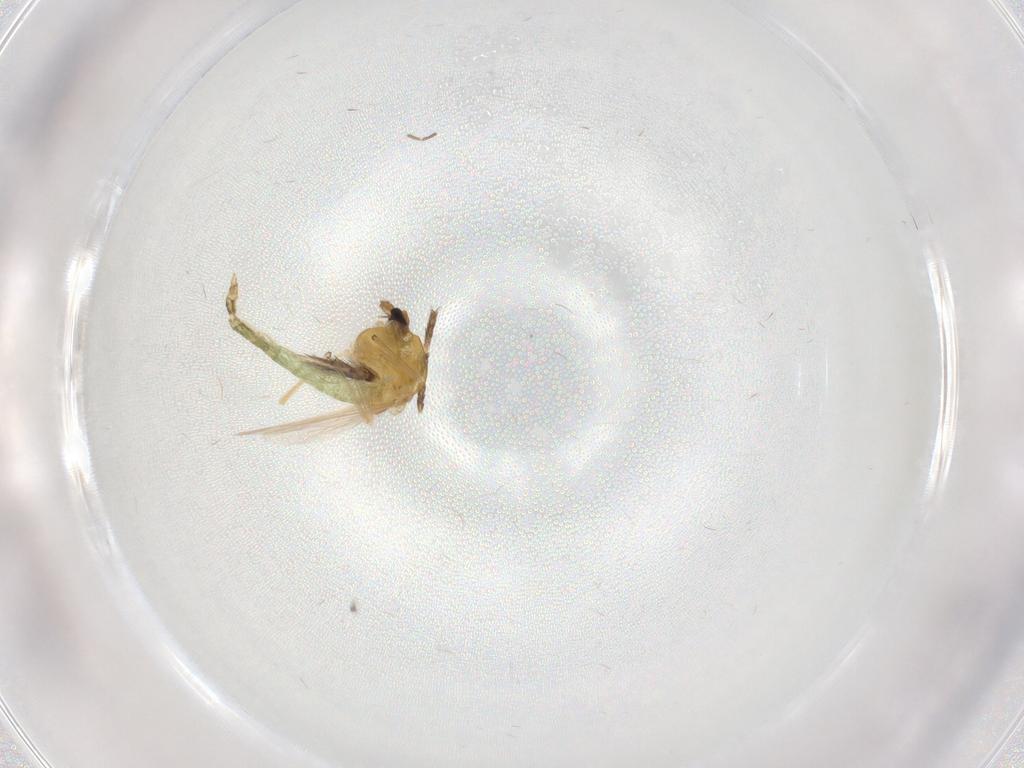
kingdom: Animalia
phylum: Arthropoda
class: Insecta
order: Diptera
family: Chironomidae
